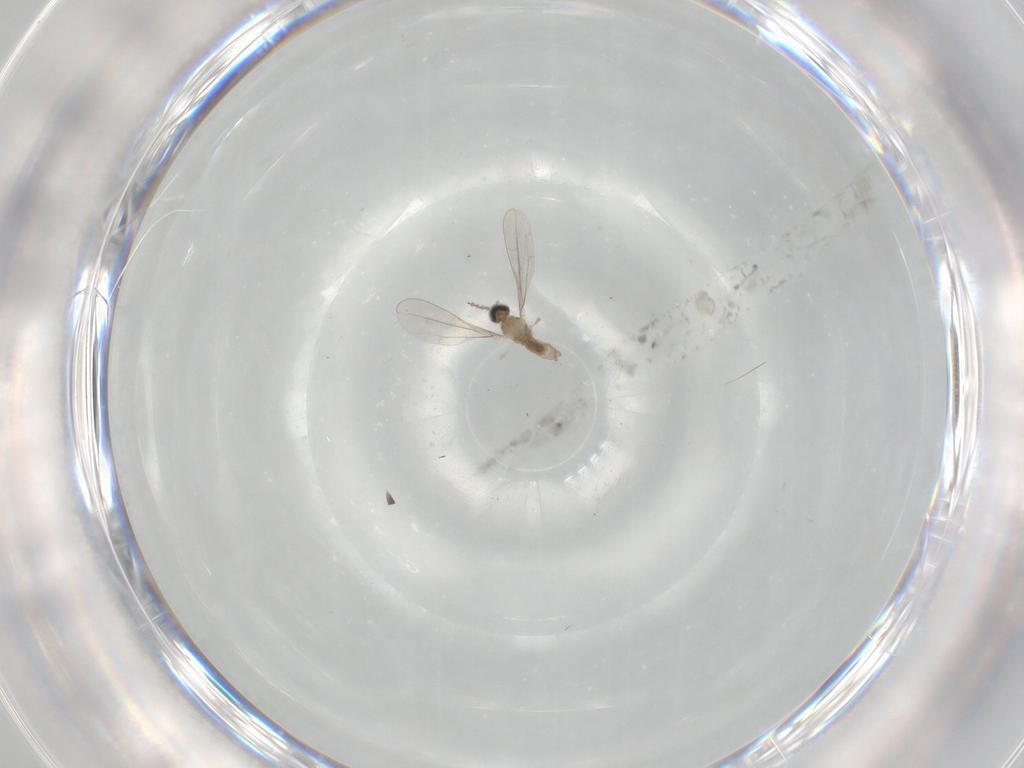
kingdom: Animalia
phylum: Arthropoda
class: Insecta
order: Diptera
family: Cecidomyiidae
